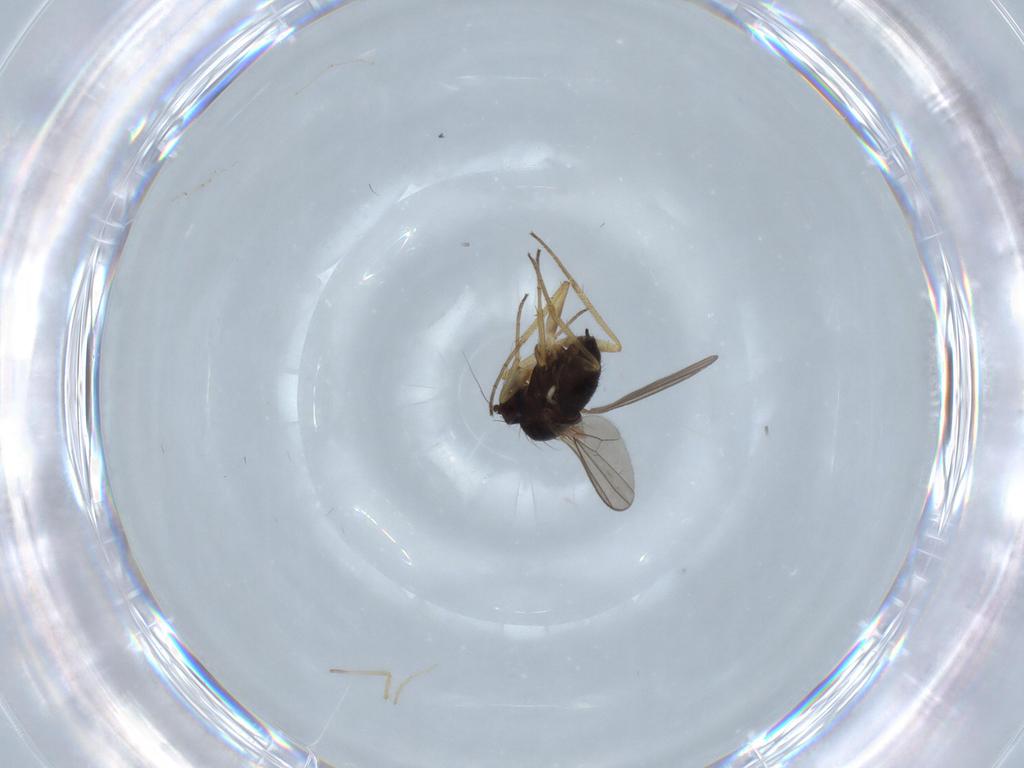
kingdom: Animalia
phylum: Arthropoda
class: Insecta
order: Diptera
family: Dolichopodidae
